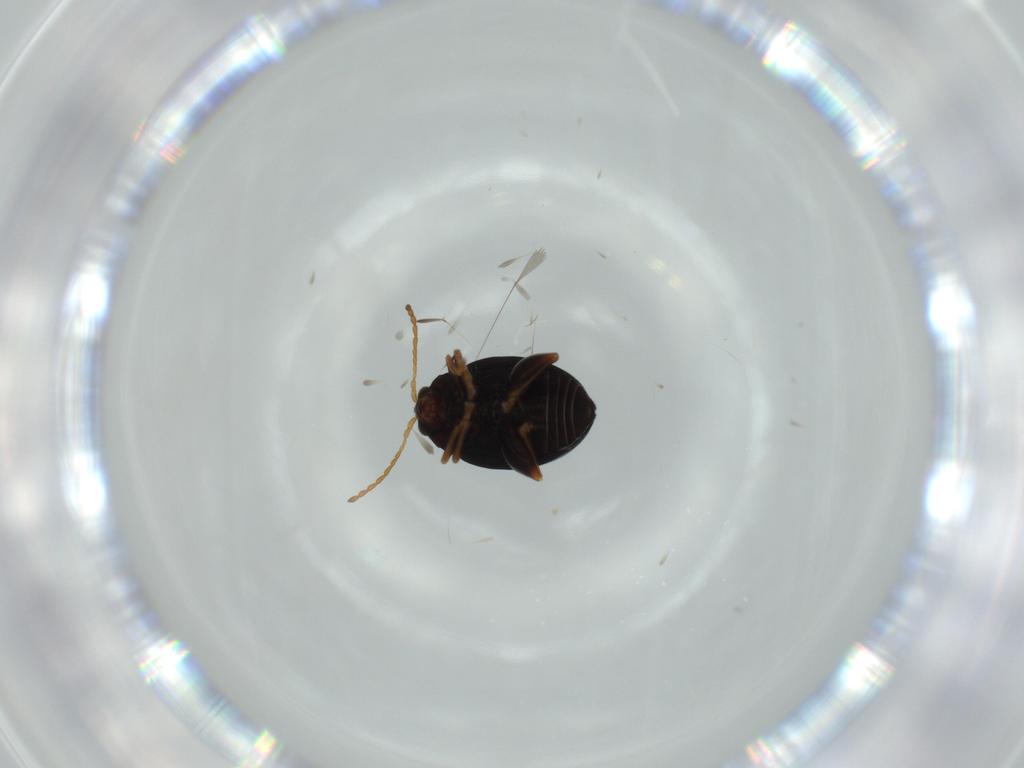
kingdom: Animalia
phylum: Arthropoda
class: Insecta
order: Coleoptera
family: Chrysomelidae
